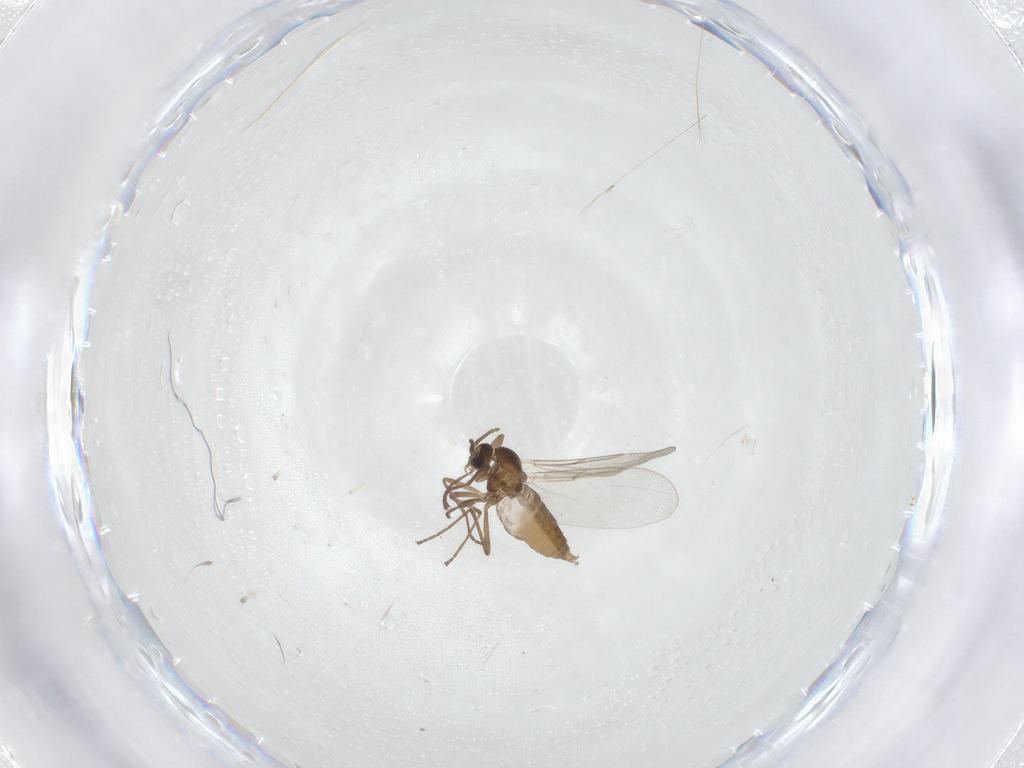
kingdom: Animalia
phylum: Arthropoda
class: Insecta
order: Diptera
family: Cecidomyiidae
